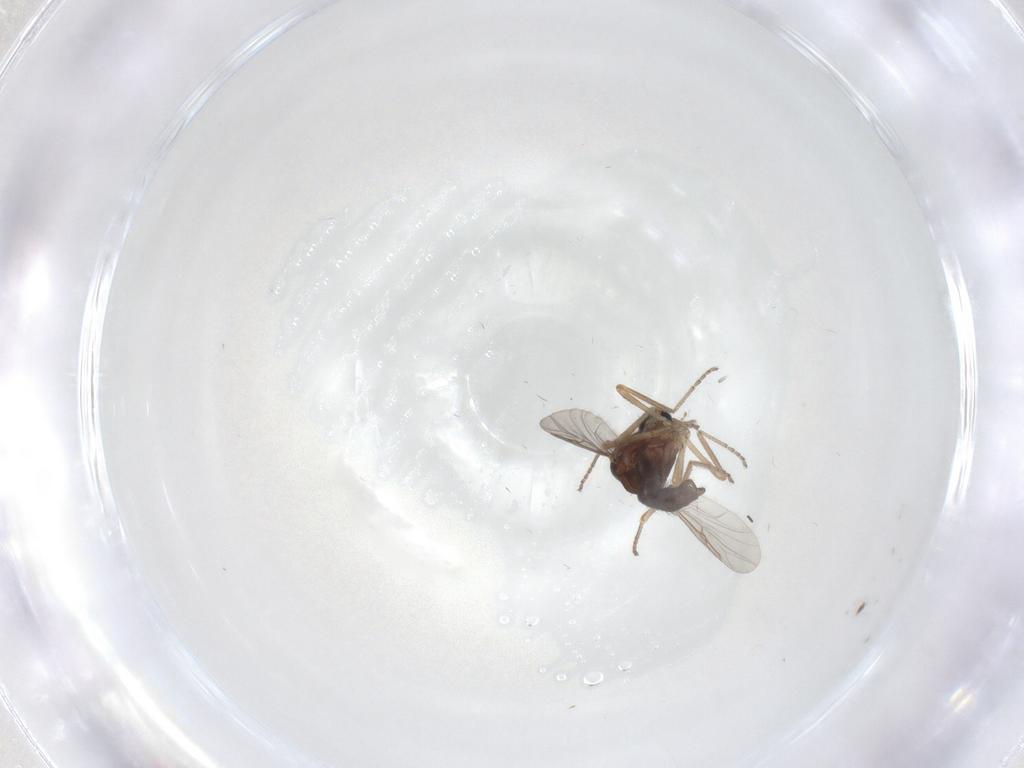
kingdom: Animalia
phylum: Arthropoda
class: Insecta
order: Diptera
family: Ceratopogonidae
